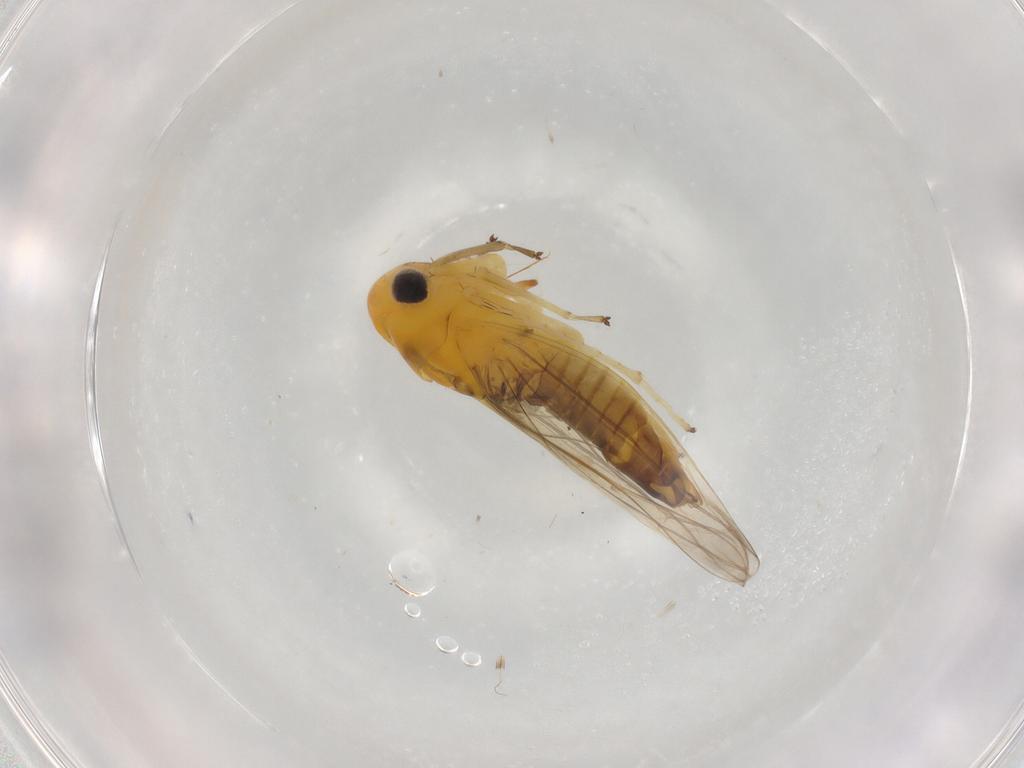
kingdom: Animalia
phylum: Arthropoda
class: Insecta
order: Hemiptera
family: Cicadellidae
